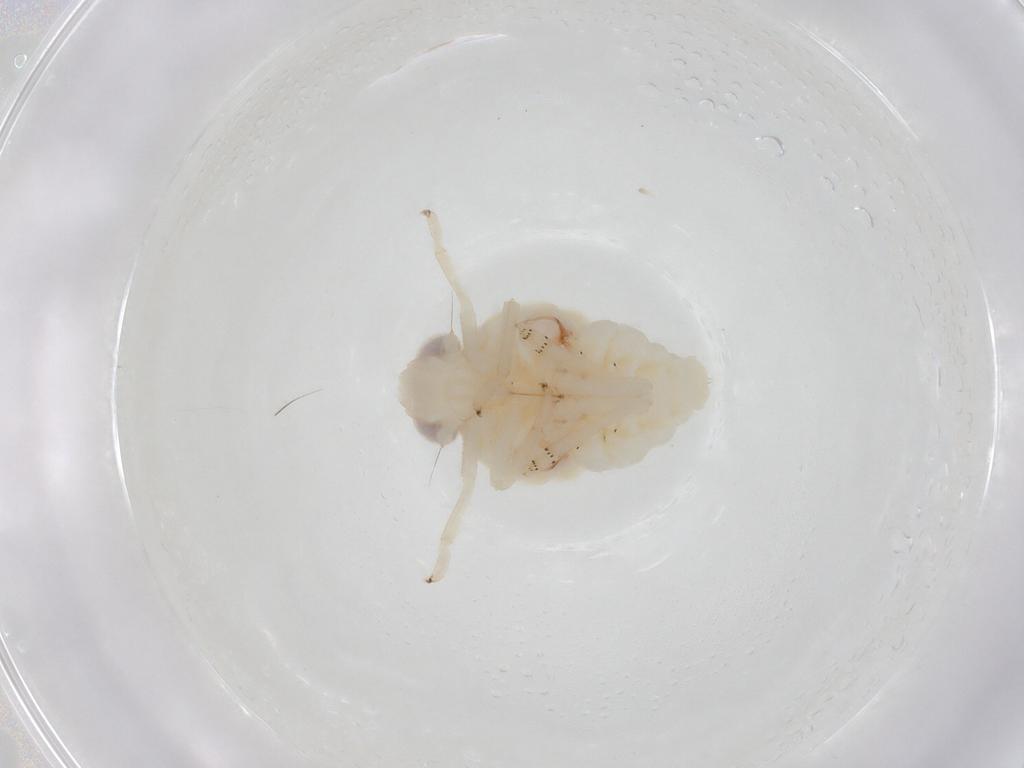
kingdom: Animalia
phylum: Arthropoda
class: Insecta
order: Hemiptera
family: Nogodinidae
